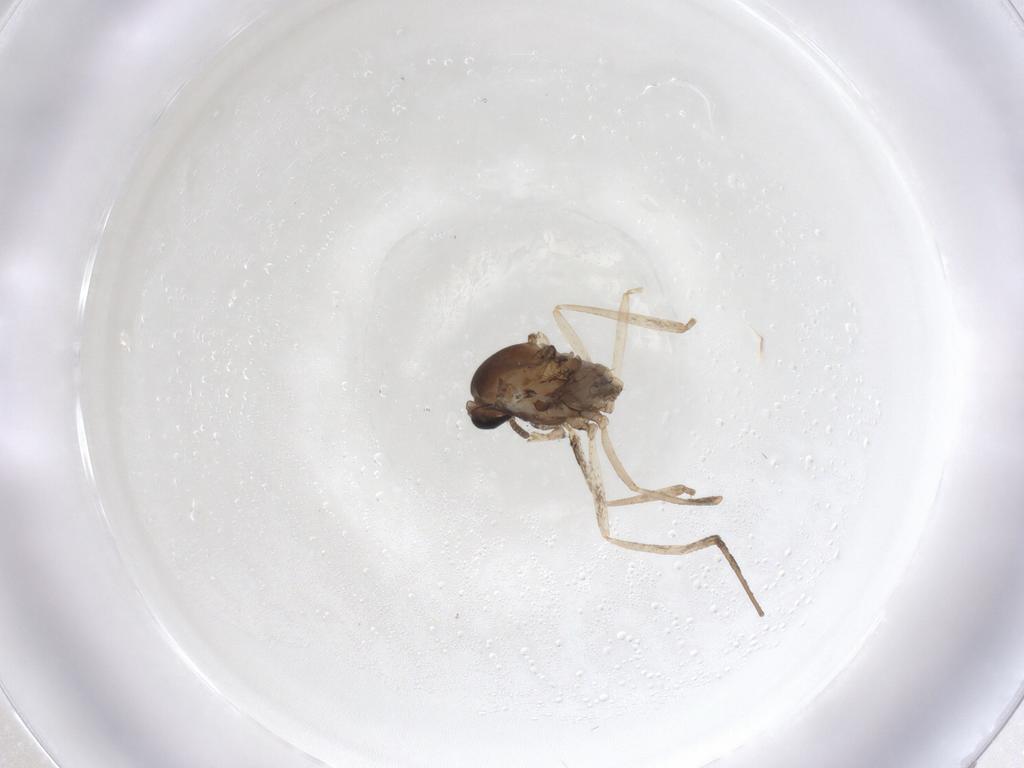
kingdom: Animalia
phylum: Arthropoda
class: Insecta
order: Diptera
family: Cecidomyiidae
